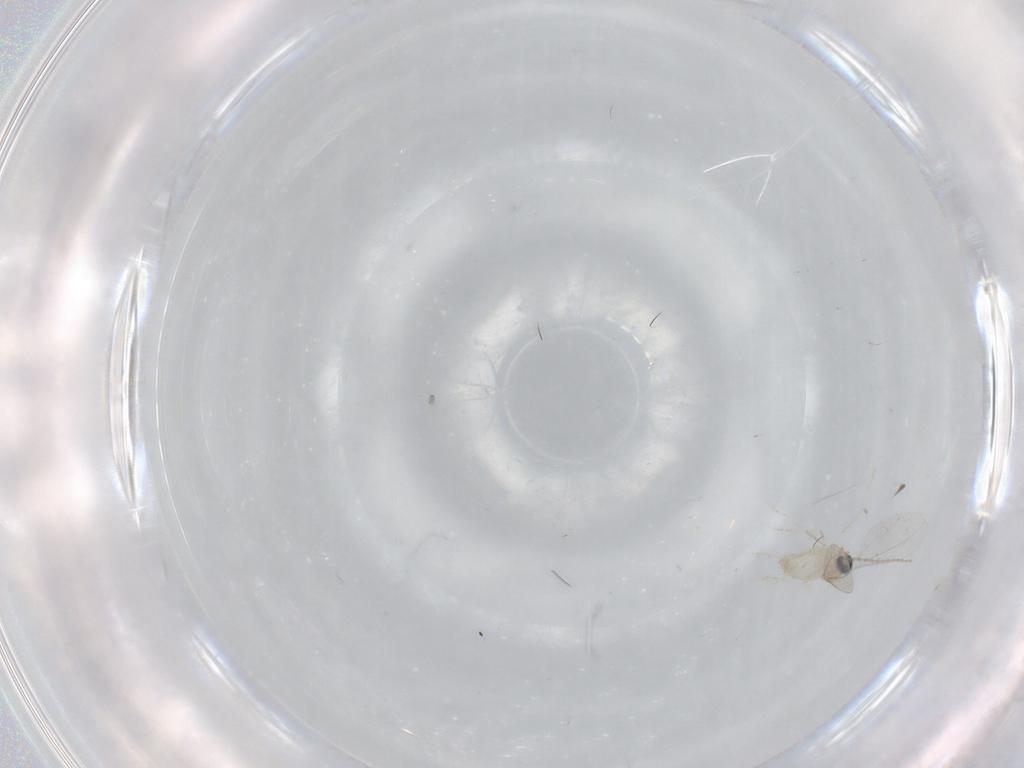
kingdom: Animalia
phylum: Arthropoda
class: Insecta
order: Diptera
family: Cecidomyiidae
